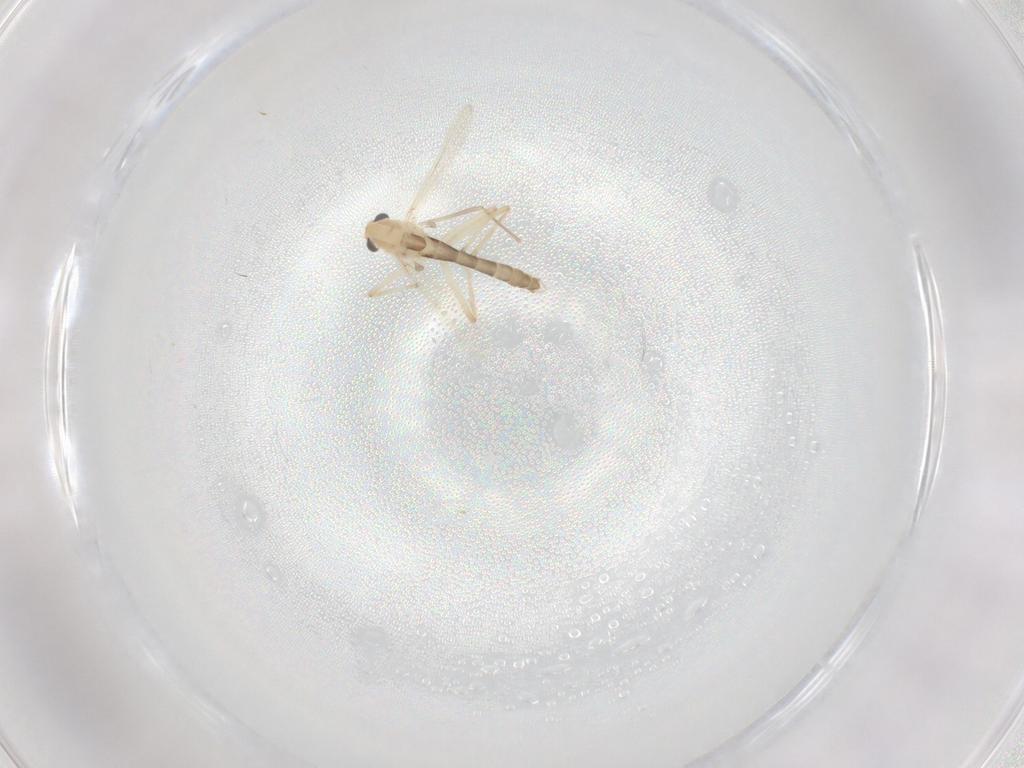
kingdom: Animalia
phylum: Arthropoda
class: Insecta
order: Diptera
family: Chironomidae
